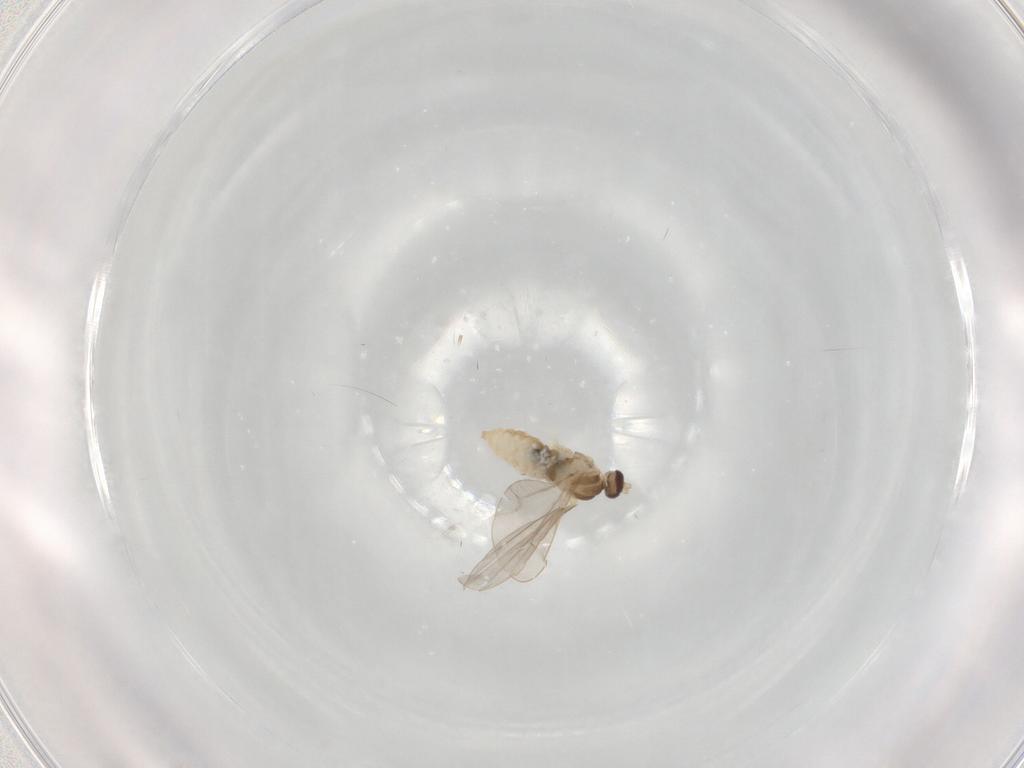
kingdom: Animalia
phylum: Arthropoda
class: Insecta
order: Diptera
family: Cecidomyiidae
